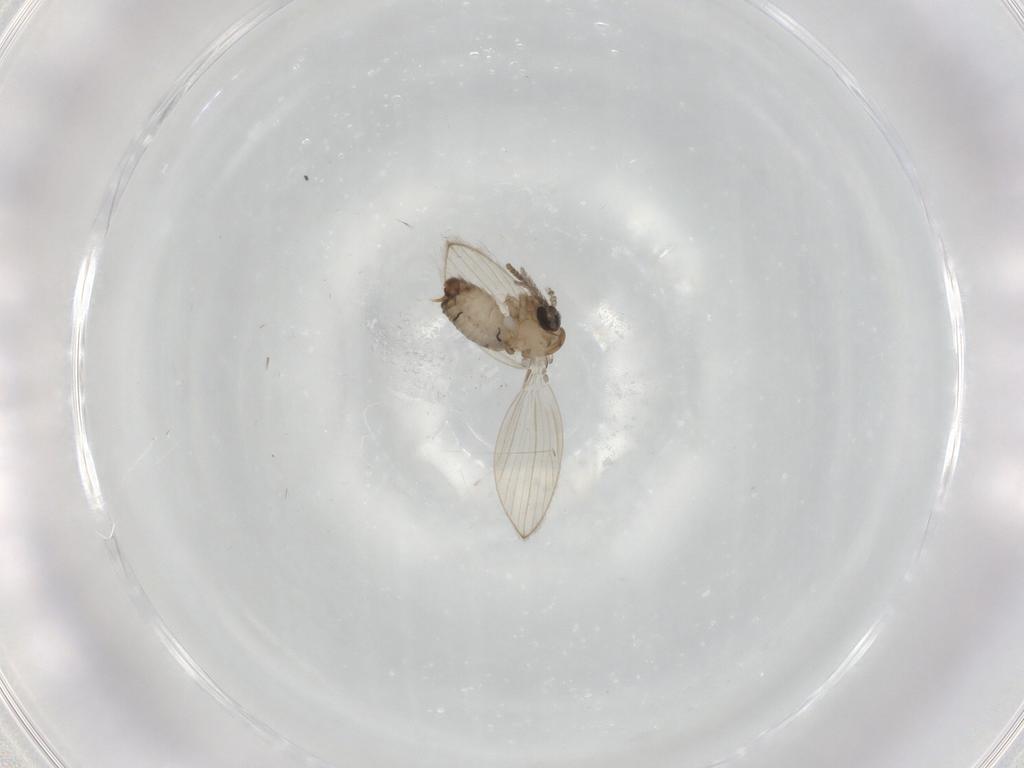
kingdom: Animalia
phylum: Arthropoda
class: Insecta
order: Diptera
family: Psychodidae
